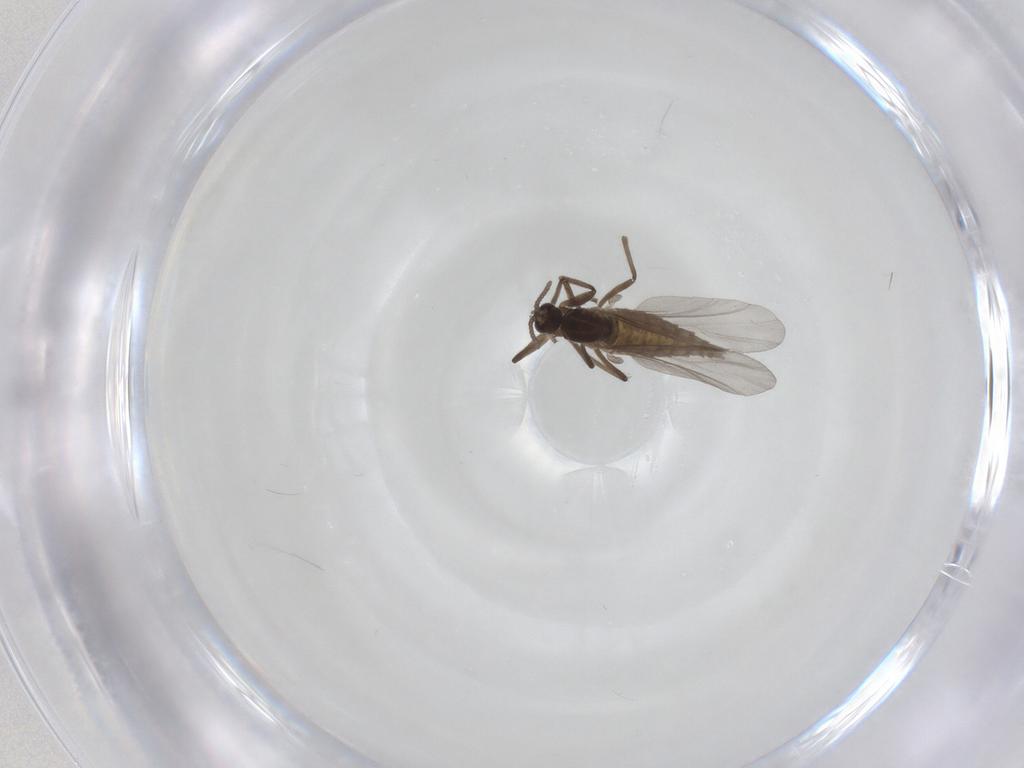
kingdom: Animalia
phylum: Arthropoda
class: Insecta
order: Diptera
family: Cecidomyiidae
